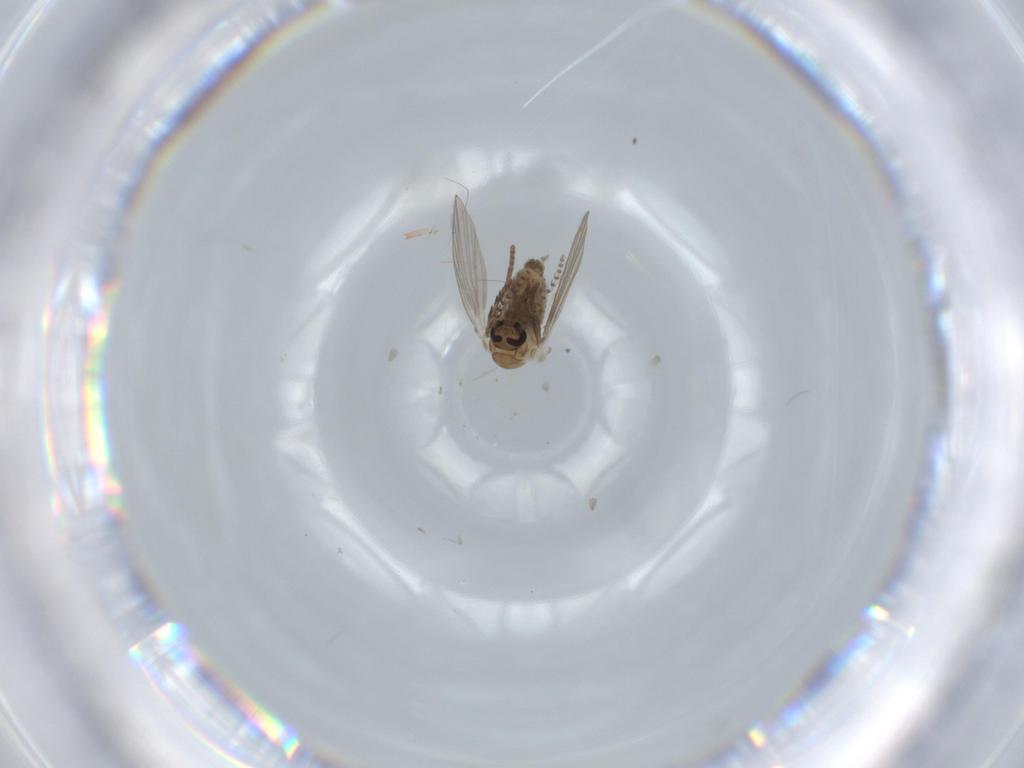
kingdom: Animalia
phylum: Arthropoda
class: Insecta
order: Diptera
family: Psychodidae
